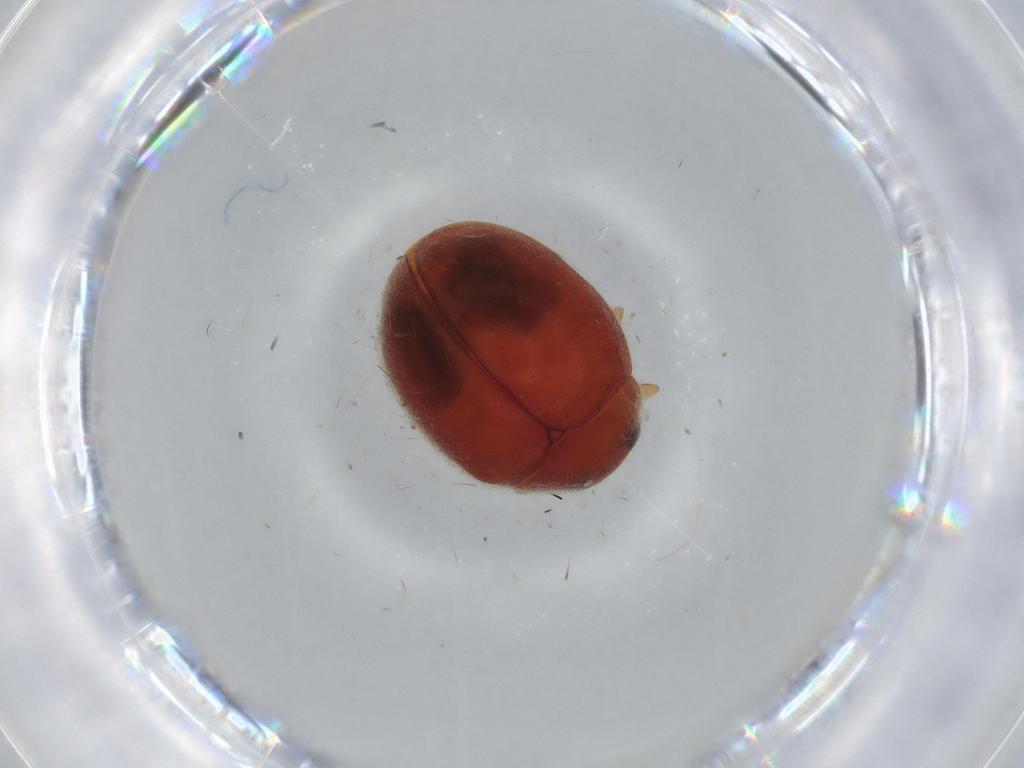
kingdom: Animalia
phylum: Arthropoda
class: Insecta
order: Coleoptera
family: Coccinellidae
